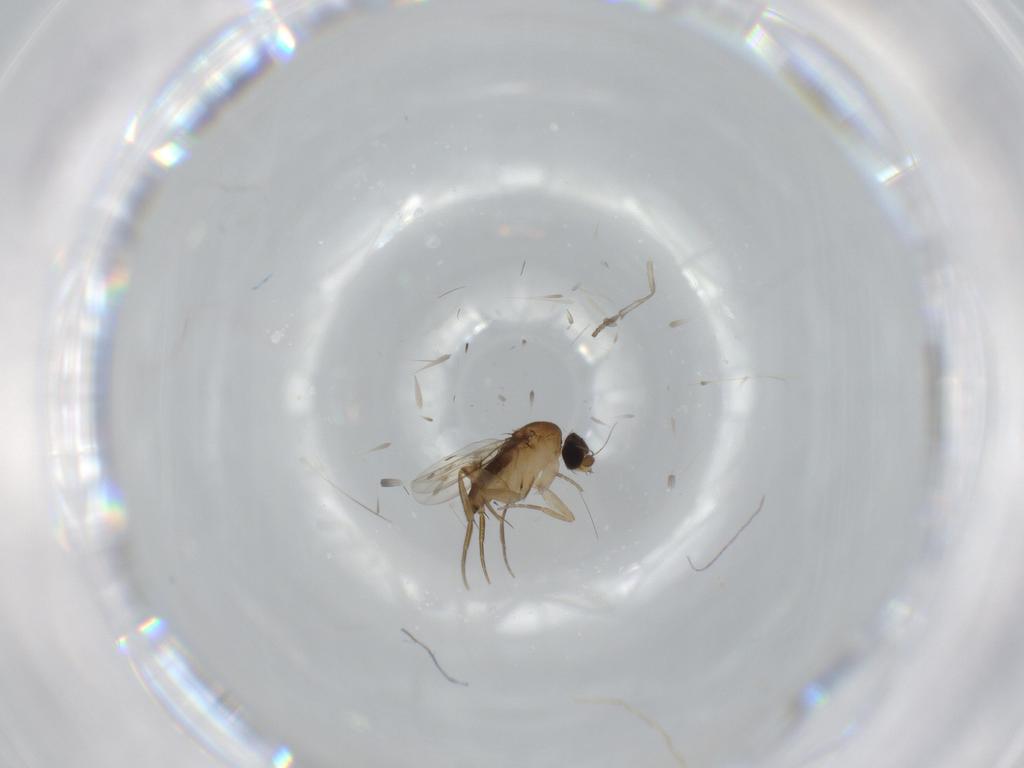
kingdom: Animalia
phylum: Arthropoda
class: Insecta
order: Diptera
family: Phoridae
